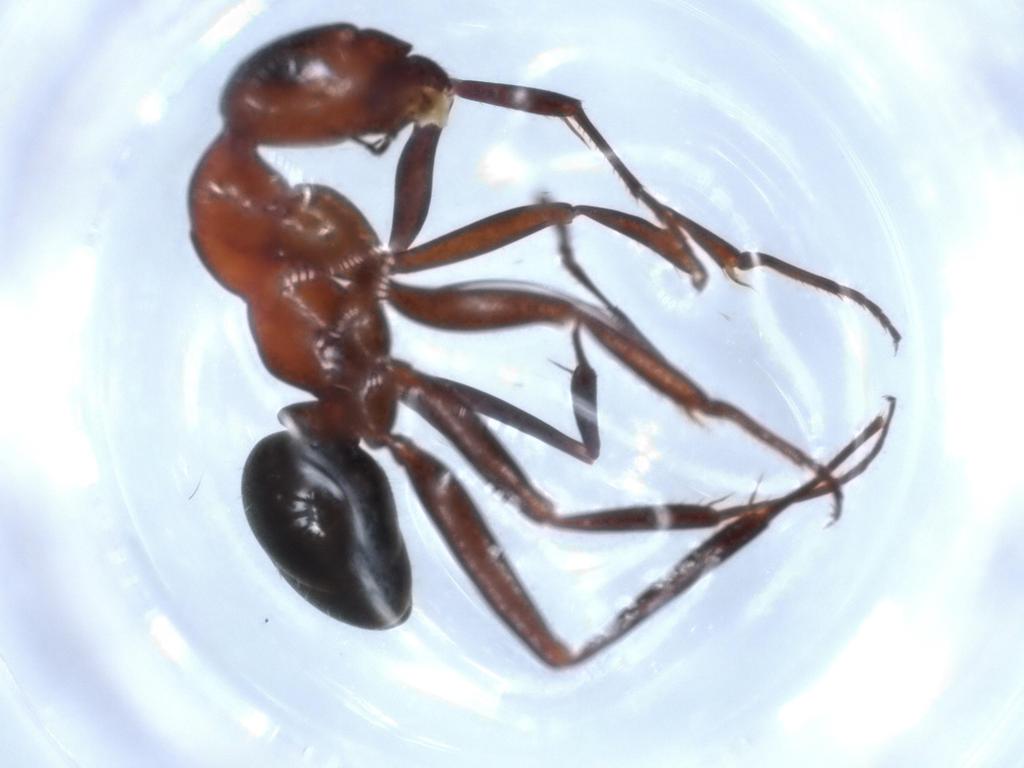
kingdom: Animalia
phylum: Arthropoda
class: Insecta
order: Hymenoptera
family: Formicidae
